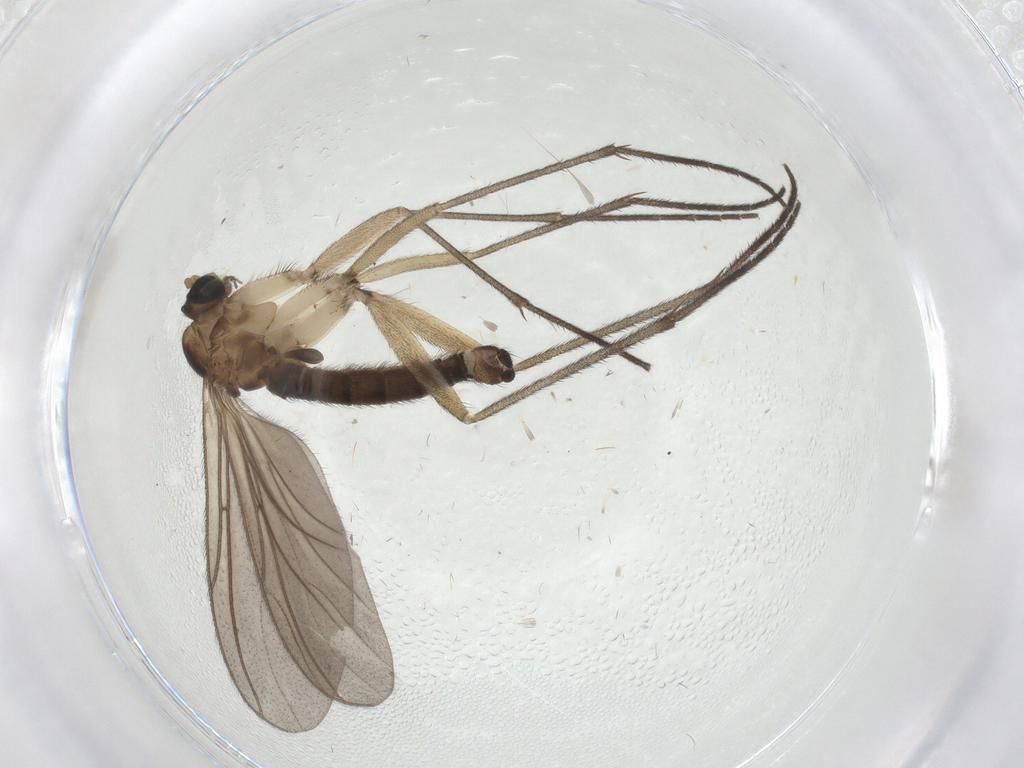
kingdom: Animalia
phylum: Arthropoda
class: Insecta
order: Diptera
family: Sciaridae
